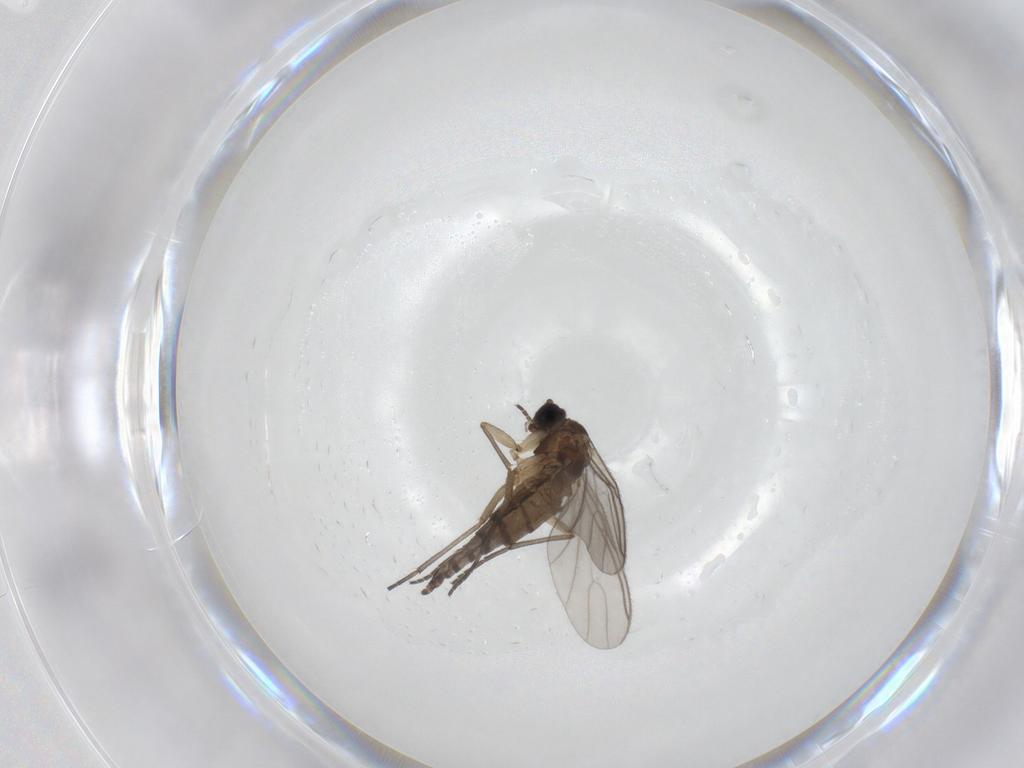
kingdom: Animalia
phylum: Arthropoda
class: Insecta
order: Diptera
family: Sciaridae
